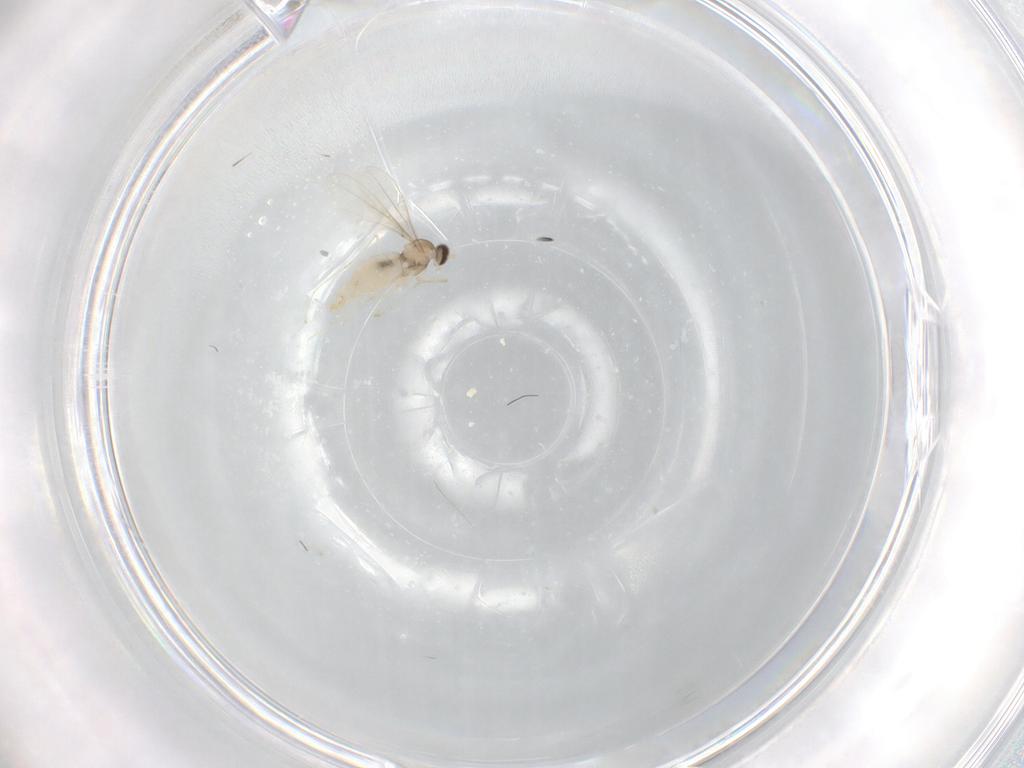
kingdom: Animalia
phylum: Arthropoda
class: Insecta
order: Diptera
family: Cecidomyiidae
